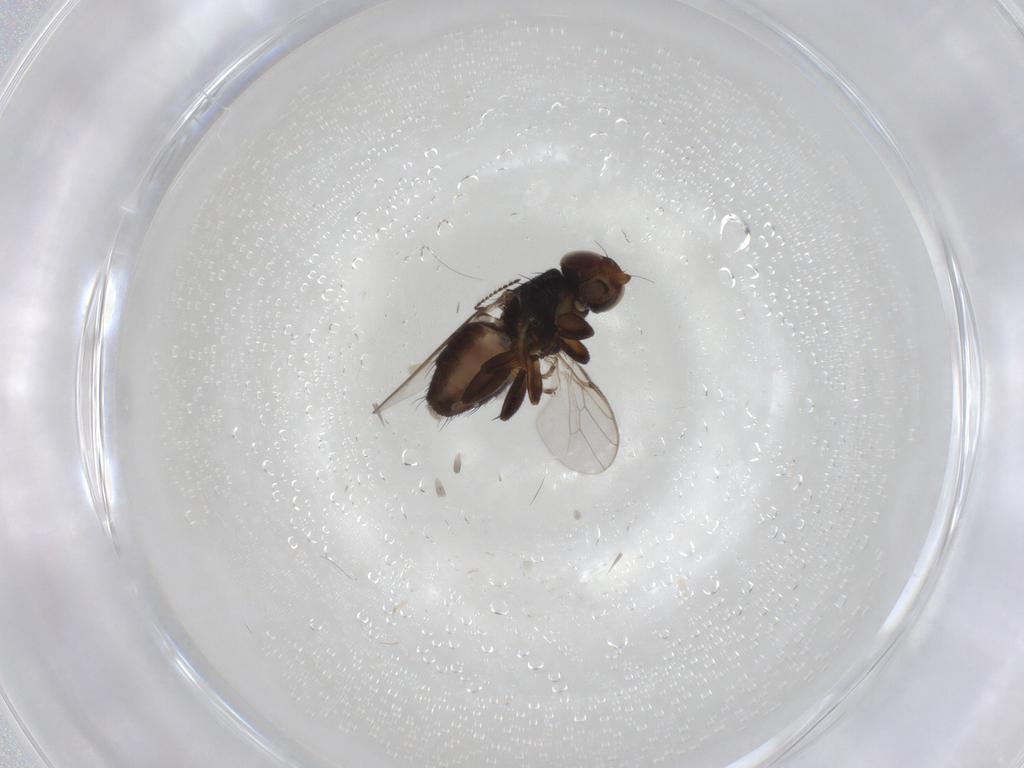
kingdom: Animalia
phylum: Arthropoda
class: Insecta
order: Diptera
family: Chloropidae
